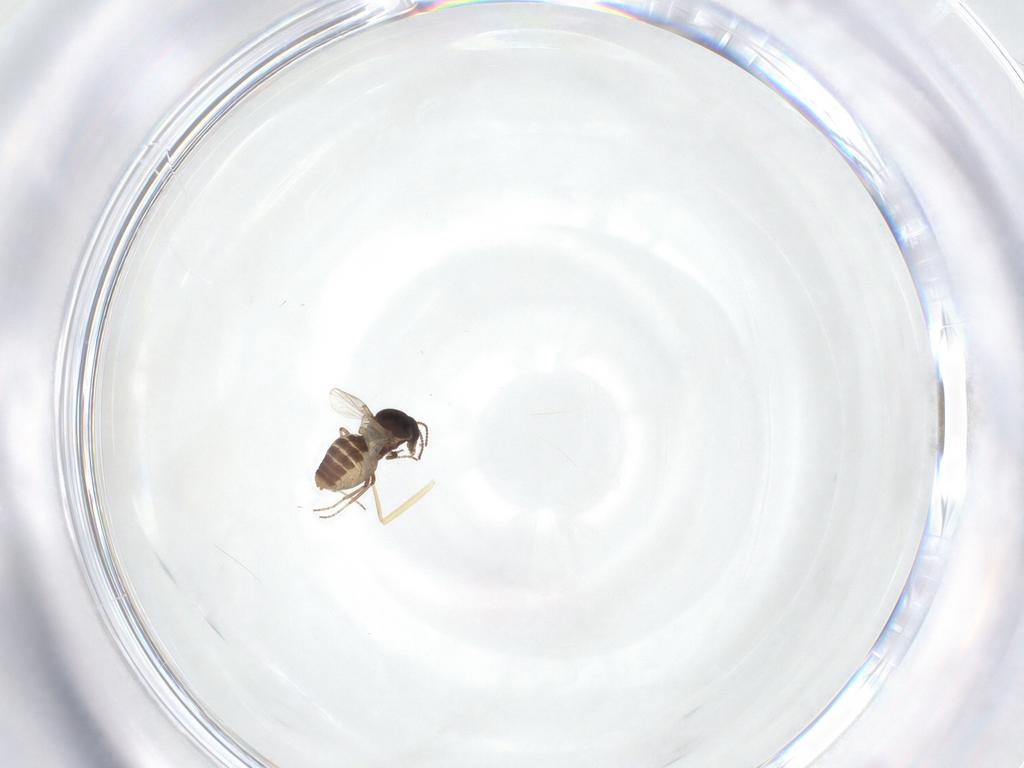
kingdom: Animalia
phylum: Arthropoda
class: Insecta
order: Diptera
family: Ceratopogonidae
